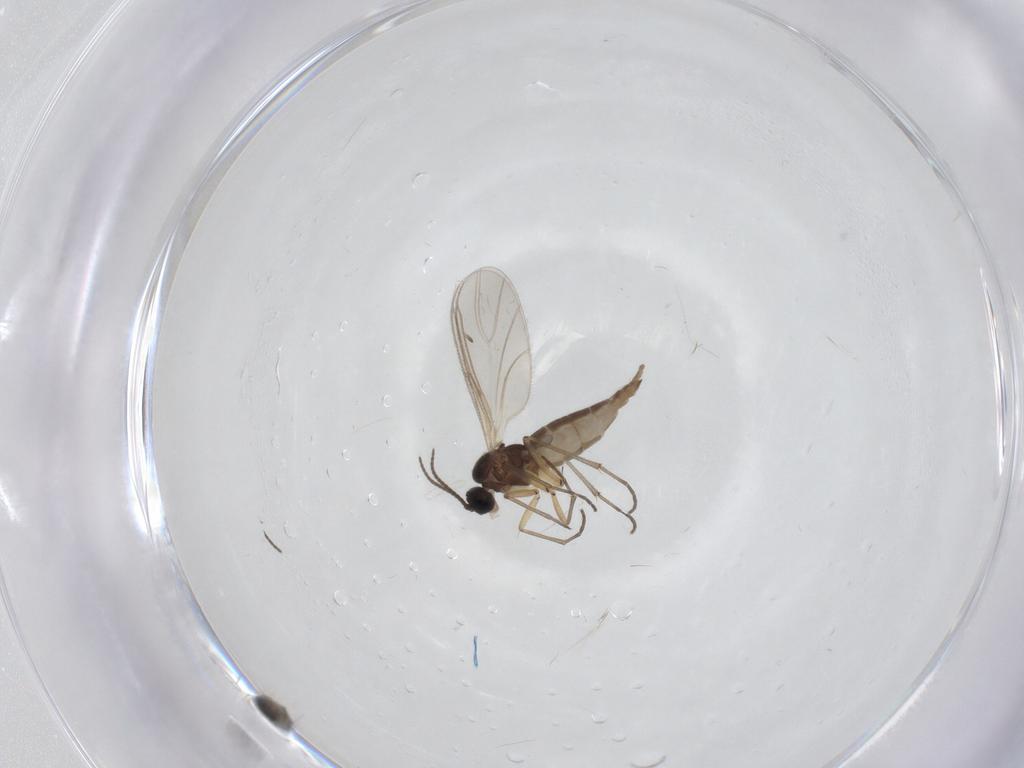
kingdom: Animalia
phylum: Arthropoda
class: Insecta
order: Diptera
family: Cecidomyiidae
